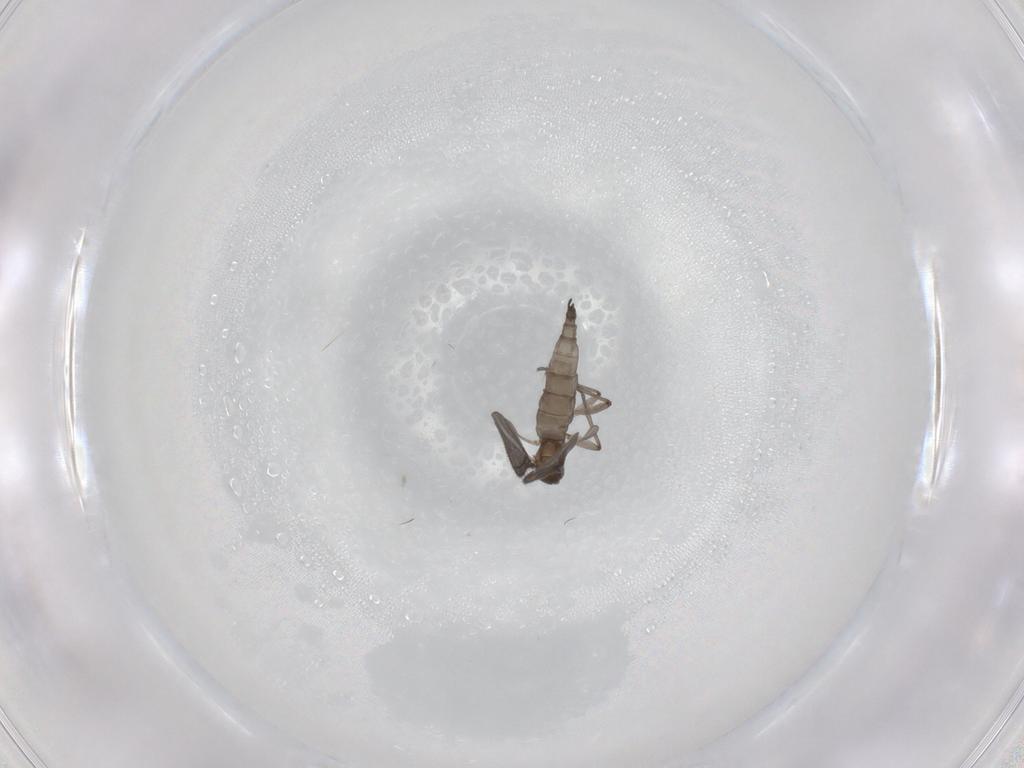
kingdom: Animalia
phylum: Arthropoda
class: Insecta
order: Diptera
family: Sciaridae
